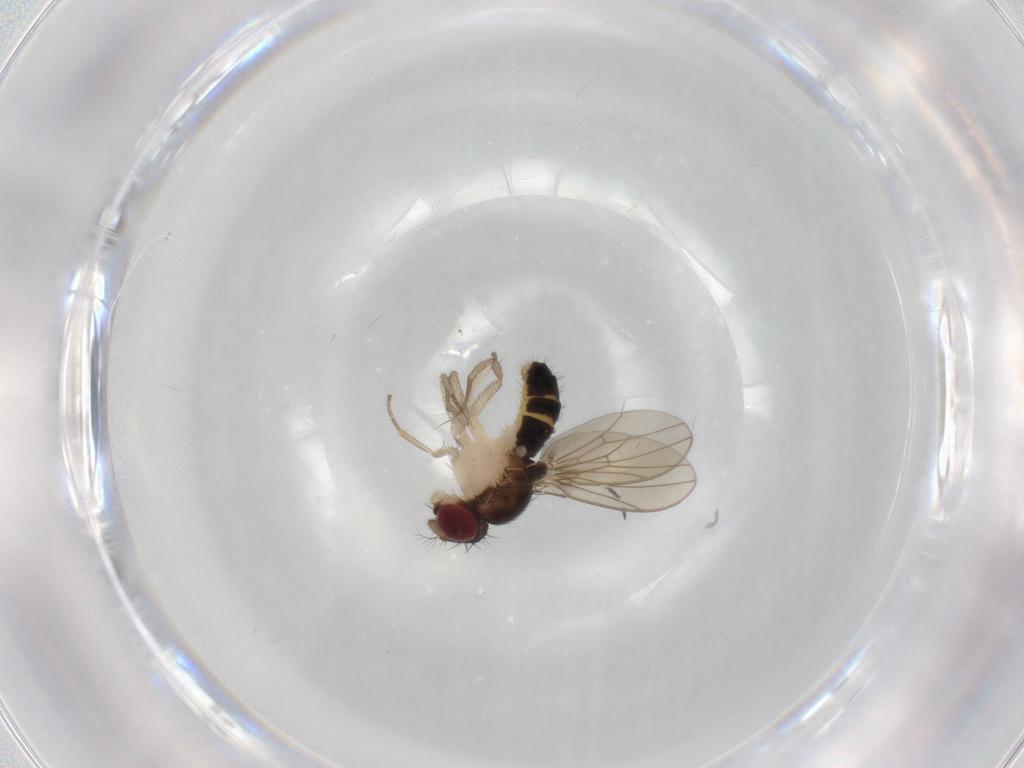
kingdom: Animalia
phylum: Arthropoda
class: Insecta
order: Diptera
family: Drosophilidae
